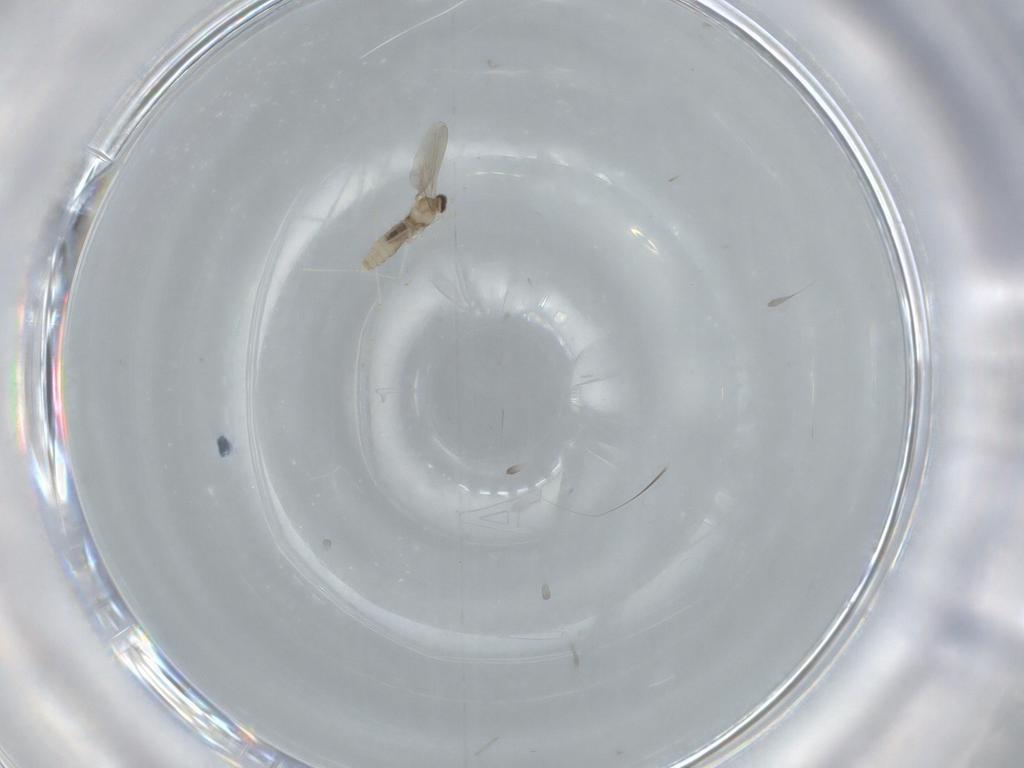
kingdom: Animalia
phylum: Arthropoda
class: Insecta
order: Diptera
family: Cecidomyiidae
